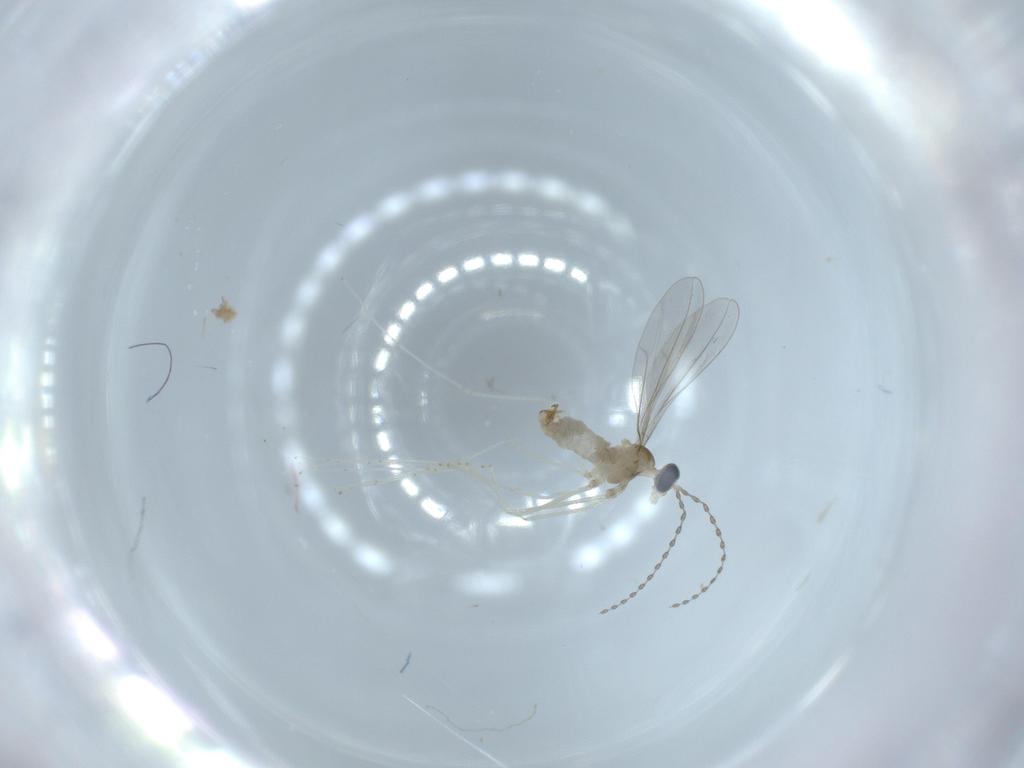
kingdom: Animalia
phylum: Arthropoda
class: Insecta
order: Diptera
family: Cecidomyiidae
